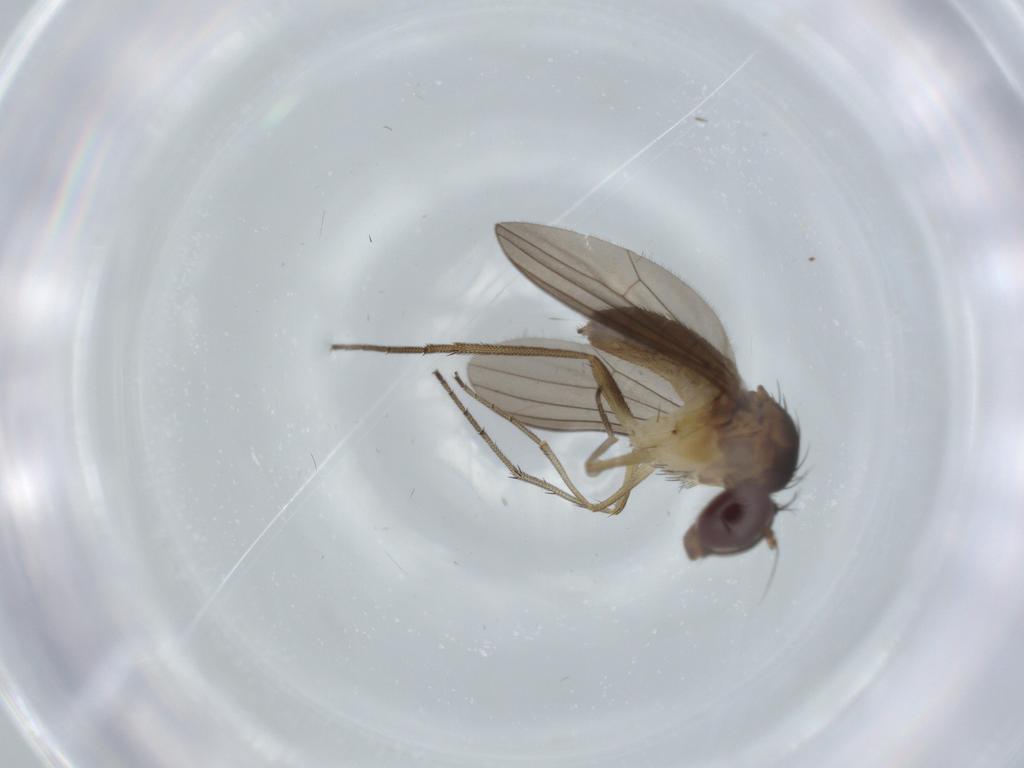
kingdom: Animalia
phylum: Arthropoda
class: Insecta
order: Diptera
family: Dolichopodidae
